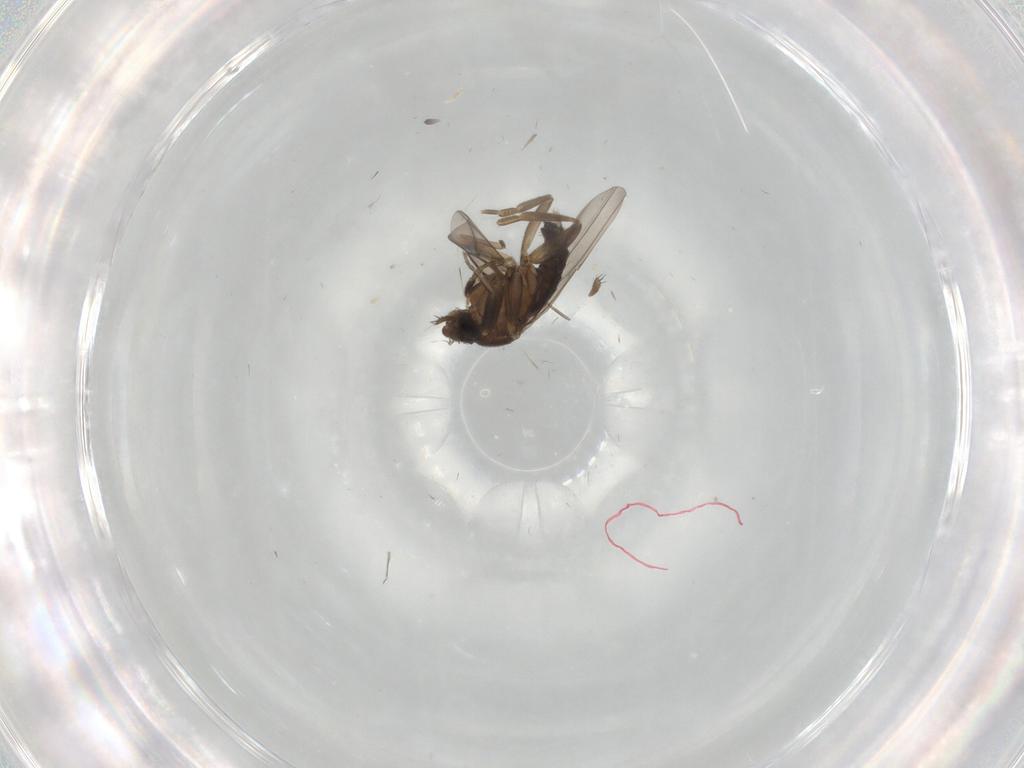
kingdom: Animalia
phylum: Arthropoda
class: Insecta
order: Diptera
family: Phoridae
